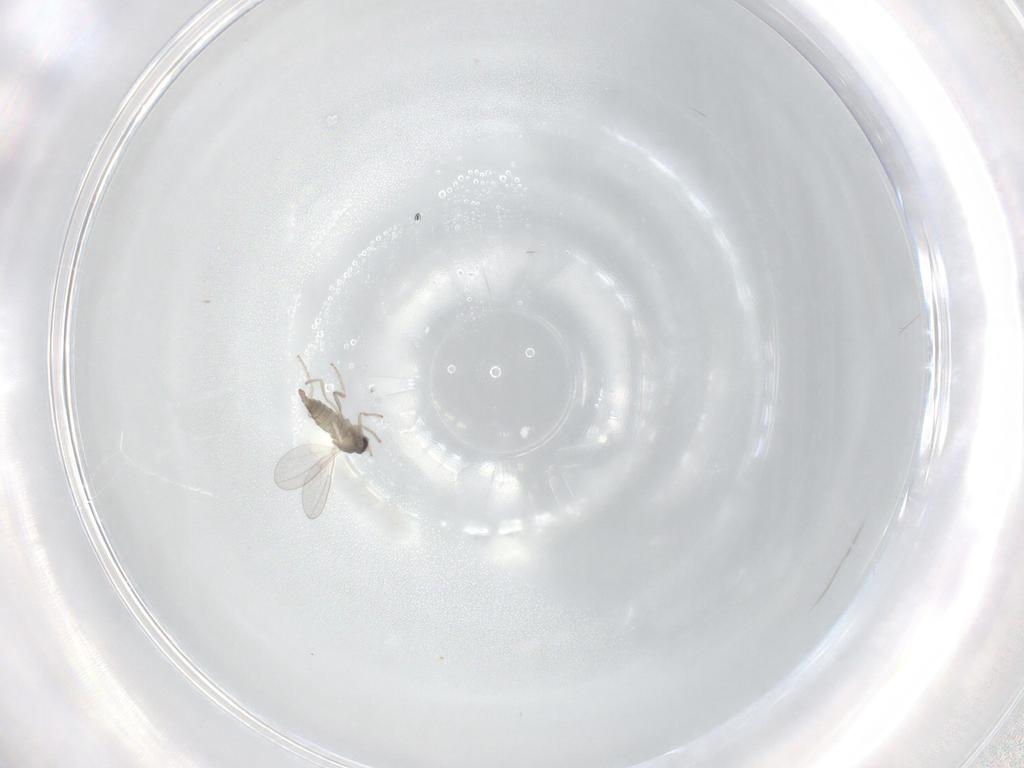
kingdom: Animalia
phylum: Arthropoda
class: Insecta
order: Diptera
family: Cecidomyiidae
